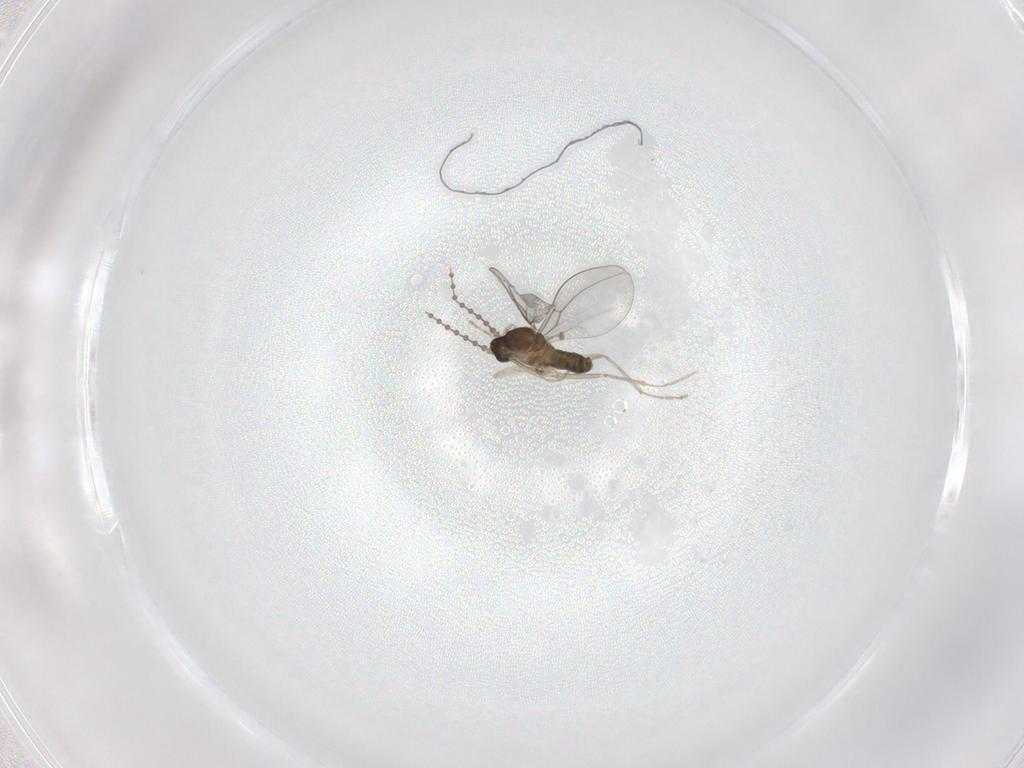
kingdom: Animalia
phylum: Arthropoda
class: Insecta
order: Diptera
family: Cecidomyiidae
